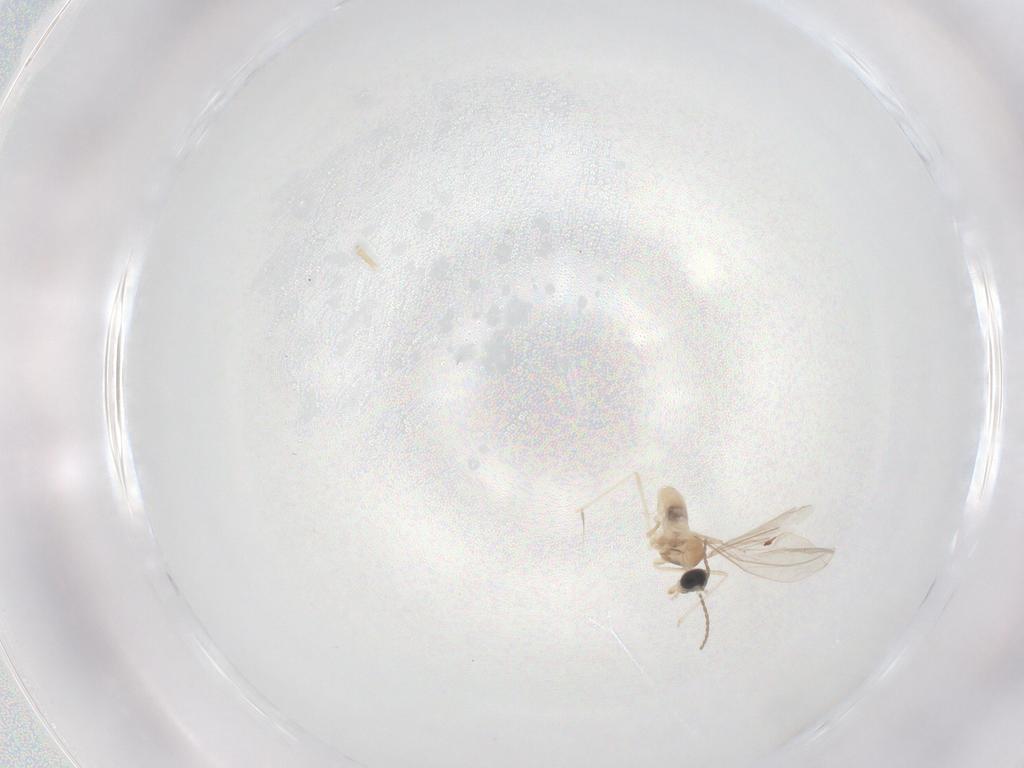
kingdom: Animalia
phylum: Arthropoda
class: Insecta
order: Diptera
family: Cecidomyiidae
